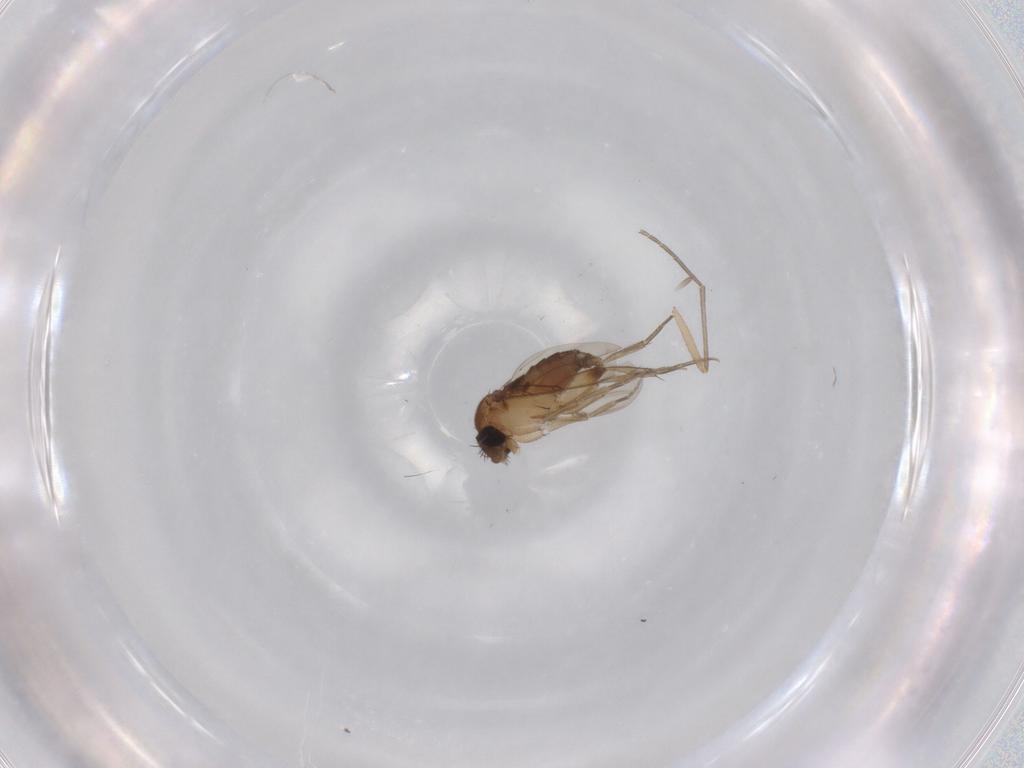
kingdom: Animalia
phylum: Arthropoda
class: Insecta
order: Diptera
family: Phoridae
